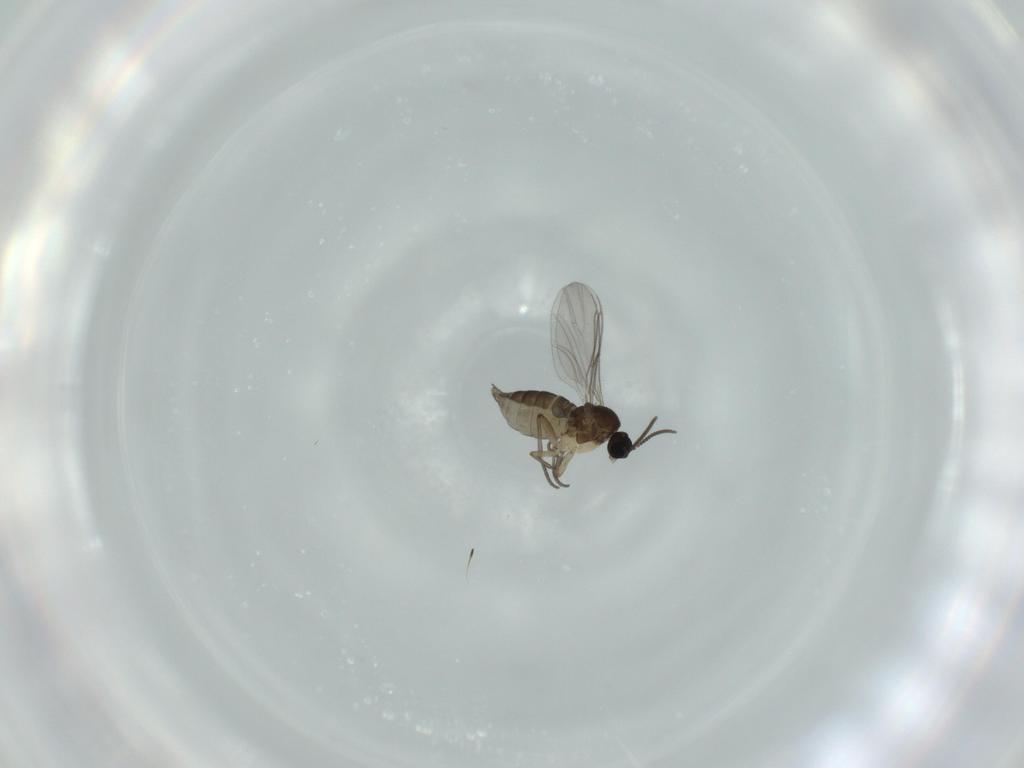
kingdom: Animalia
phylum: Arthropoda
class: Insecta
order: Diptera
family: Sciaridae
